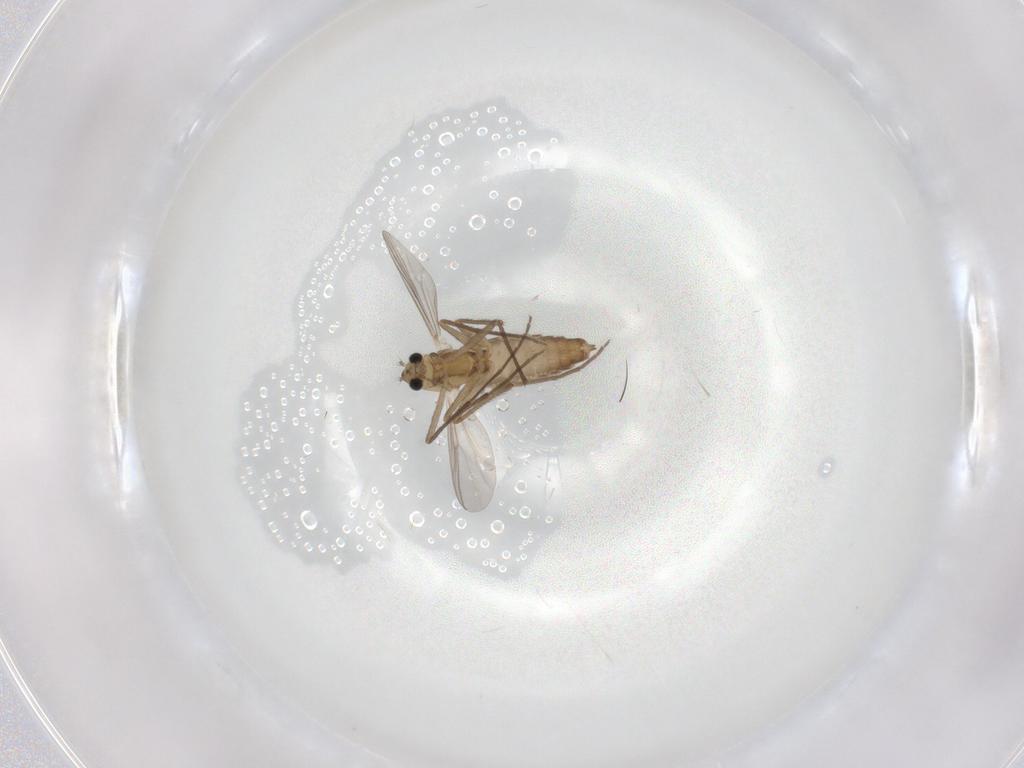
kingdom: Animalia
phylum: Arthropoda
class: Insecta
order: Diptera
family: Chironomidae
